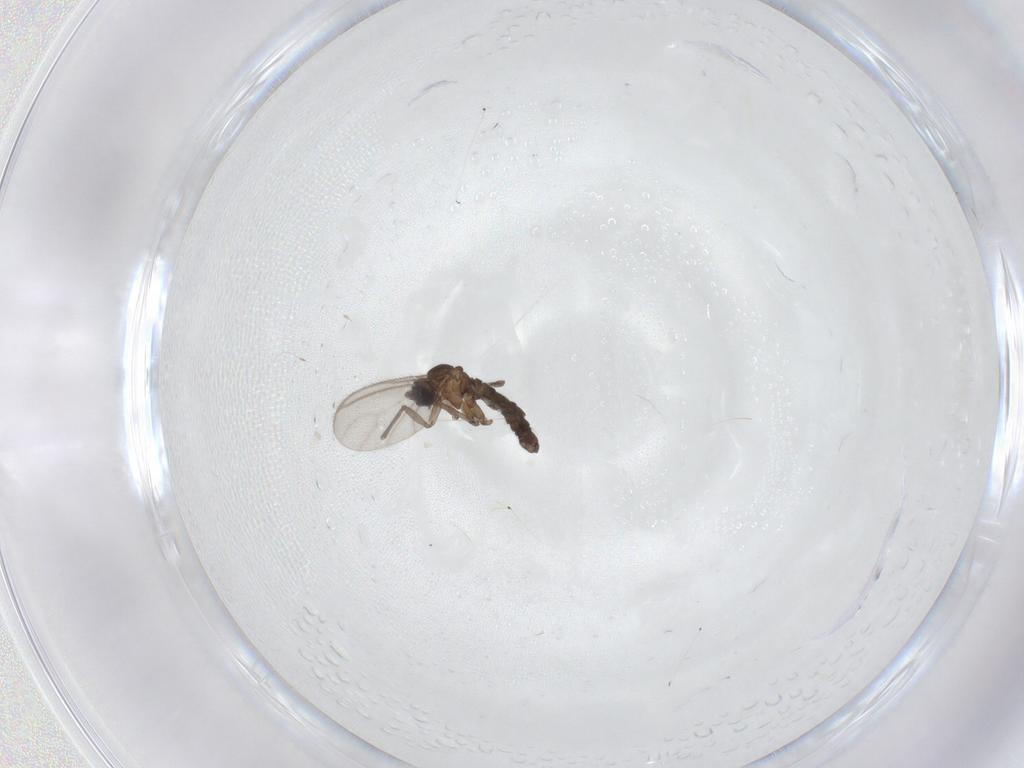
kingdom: Animalia
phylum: Arthropoda
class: Insecta
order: Diptera
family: Sciaridae
